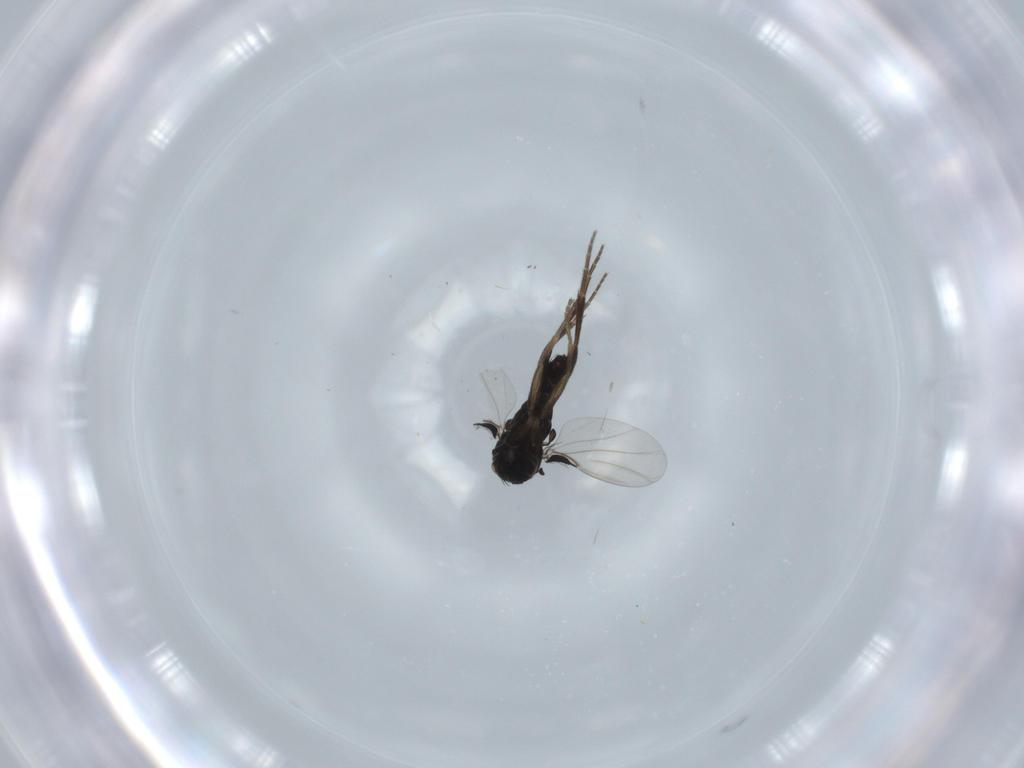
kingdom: Animalia
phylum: Arthropoda
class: Insecta
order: Diptera
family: Phoridae
